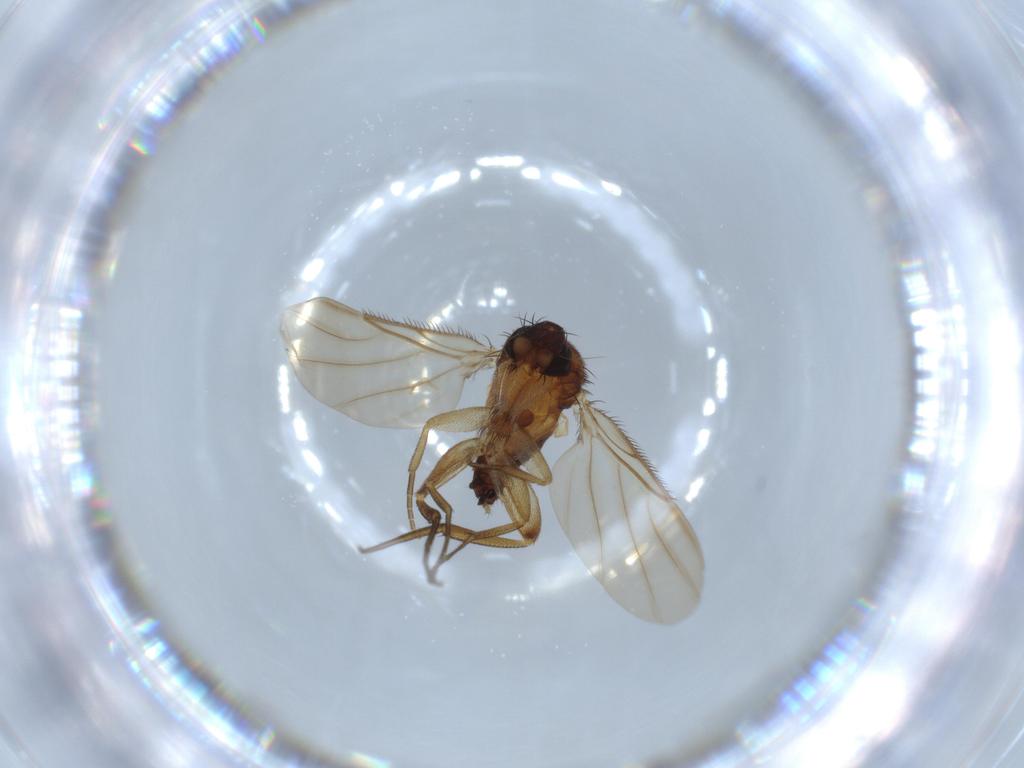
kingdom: Animalia
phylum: Arthropoda
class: Insecta
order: Diptera
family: Phoridae
